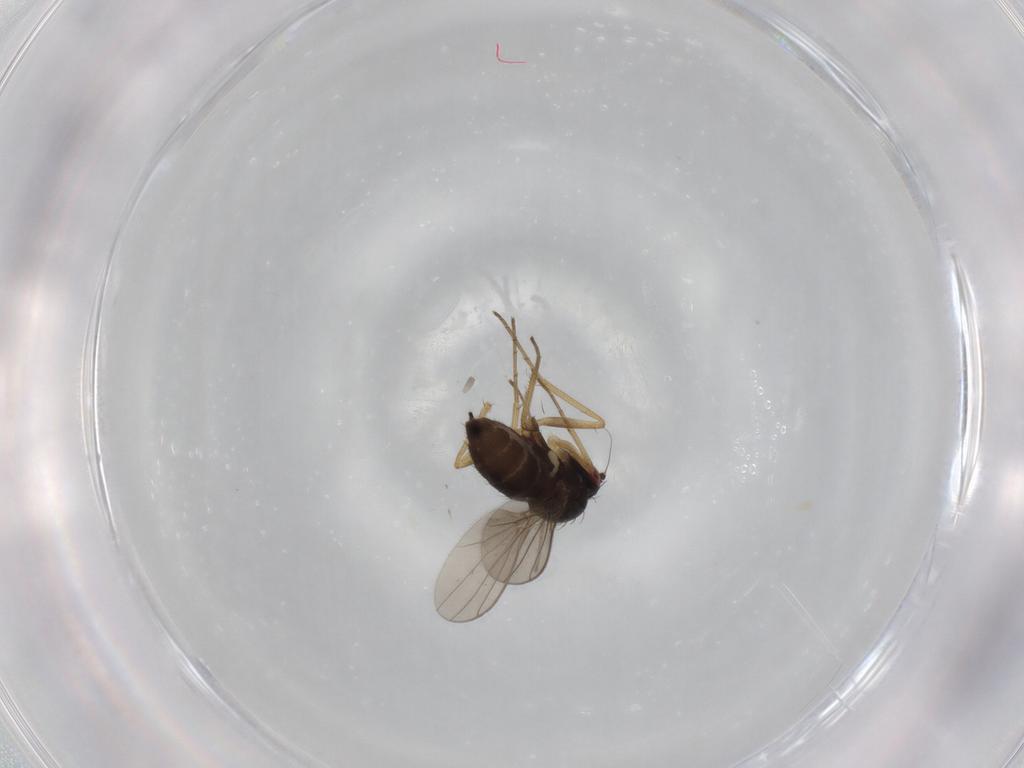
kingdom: Animalia
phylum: Arthropoda
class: Insecta
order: Diptera
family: Dolichopodidae
